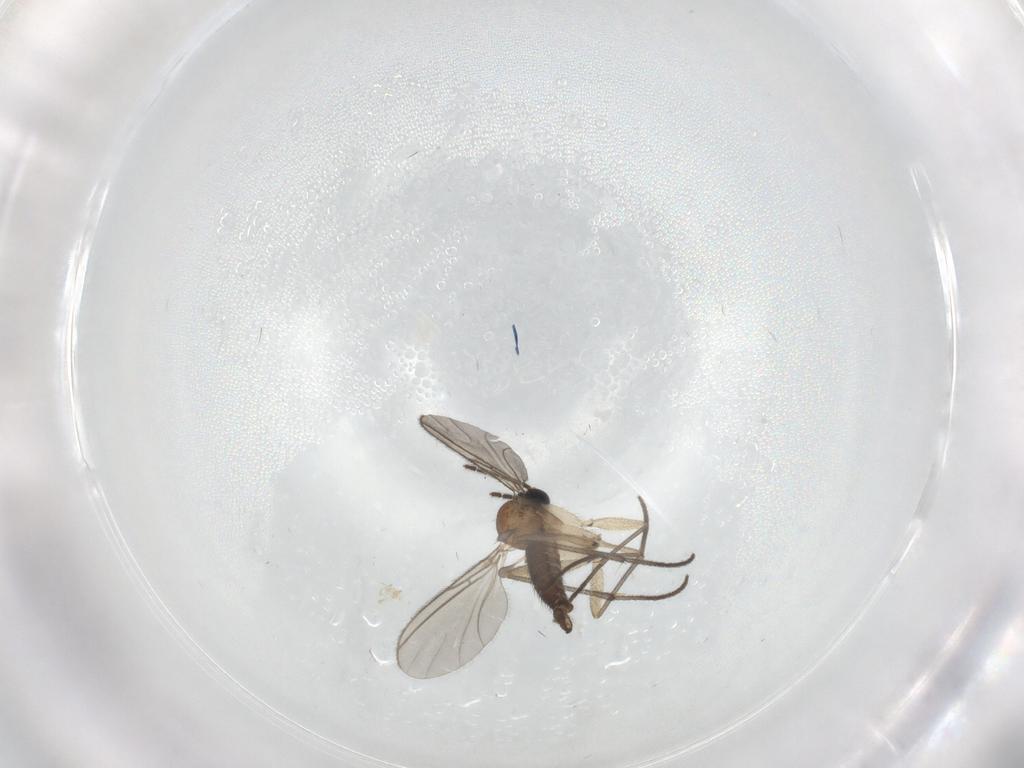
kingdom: Animalia
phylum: Arthropoda
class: Insecta
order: Diptera
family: Sciaridae
